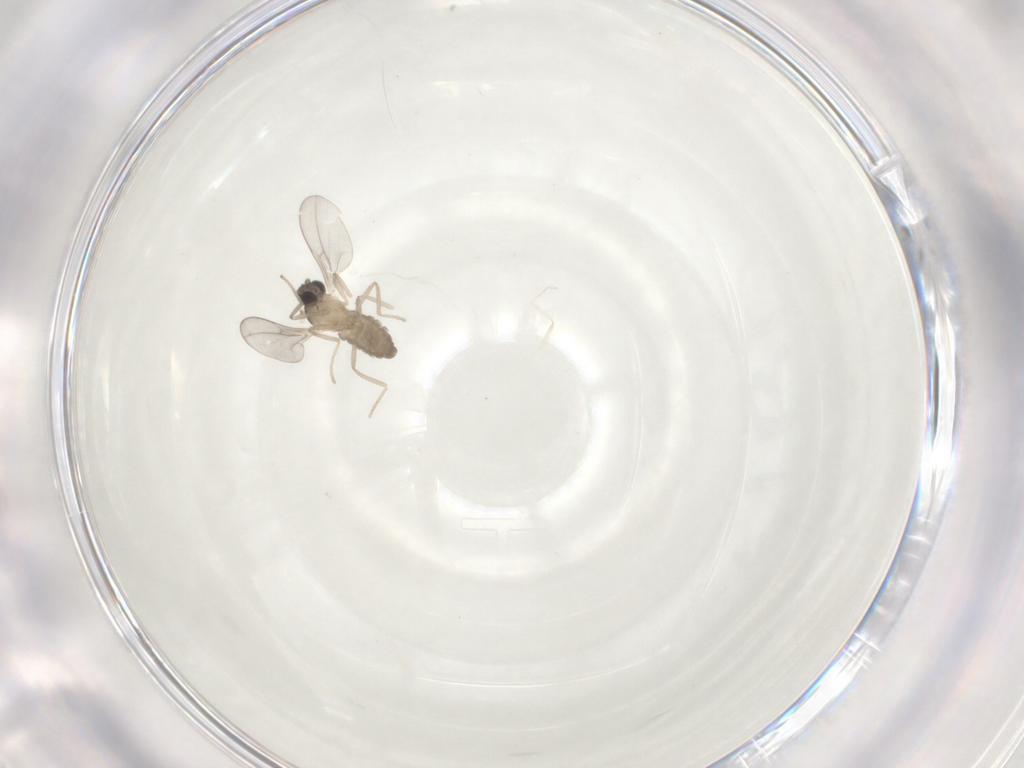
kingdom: Animalia
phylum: Arthropoda
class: Insecta
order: Diptera
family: Cecidomyiidae
